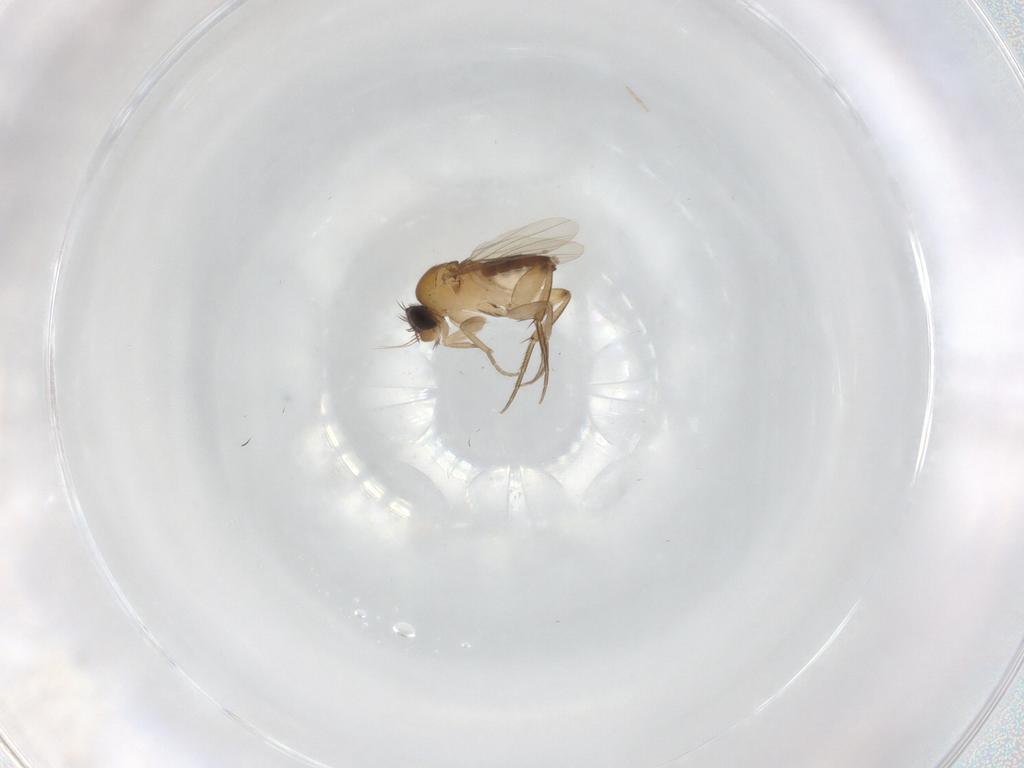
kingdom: Animalia
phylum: Arthropoda
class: Insecta
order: Diptera
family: Phoridae
